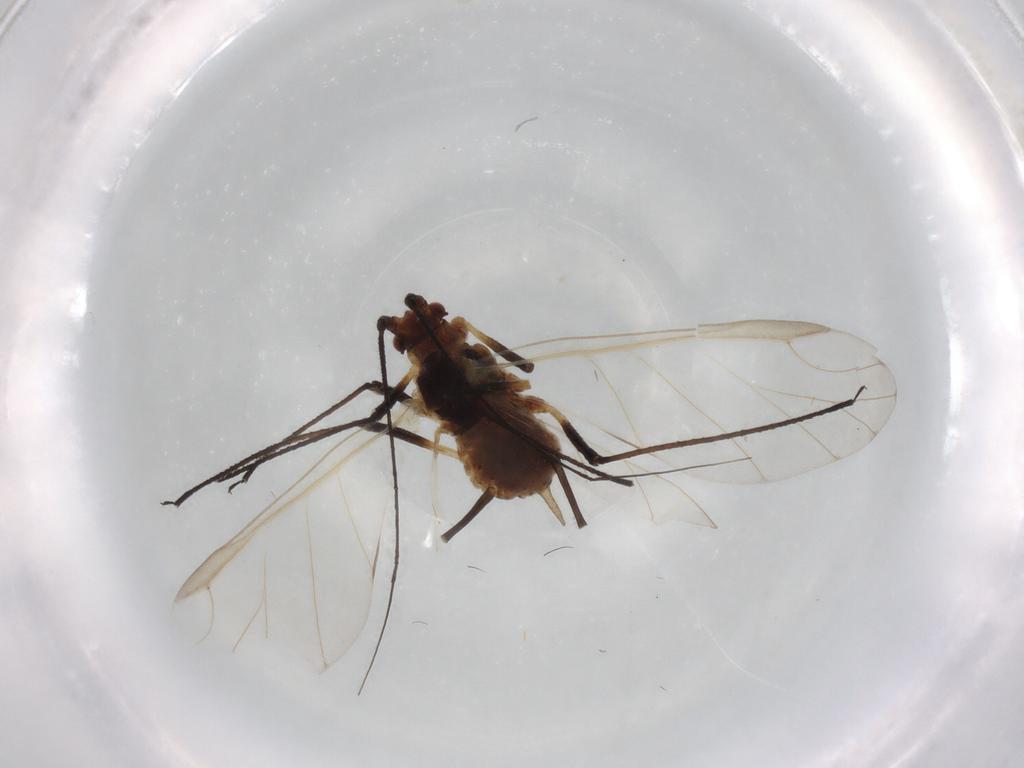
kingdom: Animalia
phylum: Arthropoda
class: Insecta
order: Hemiptera
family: Aphididae
